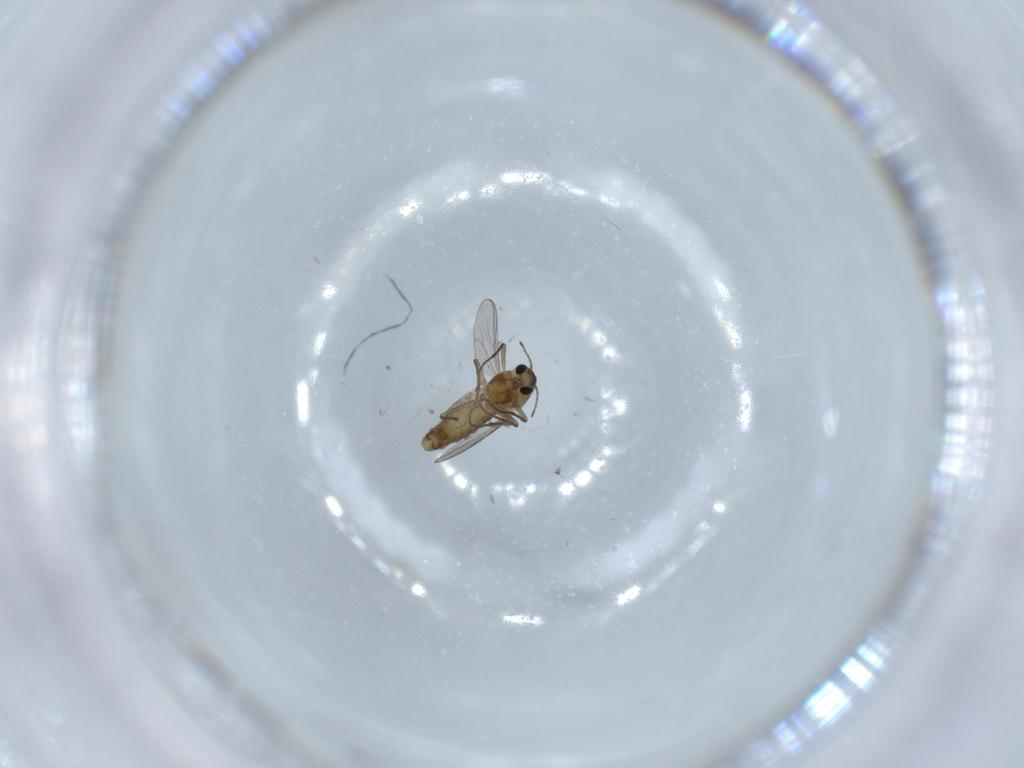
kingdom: Animalia
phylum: Arthropoda
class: Insecta
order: Diptera
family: Chironomidae
